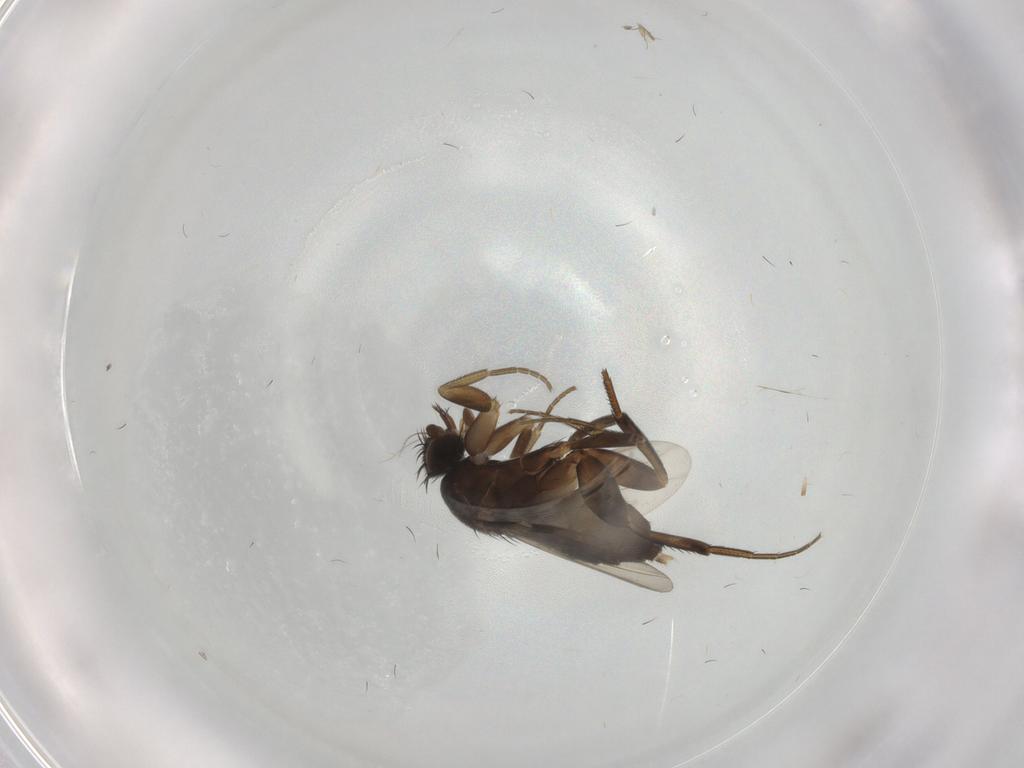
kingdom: Animalia
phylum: Arthropoda
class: Insecta
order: Diptera
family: Phoridae
